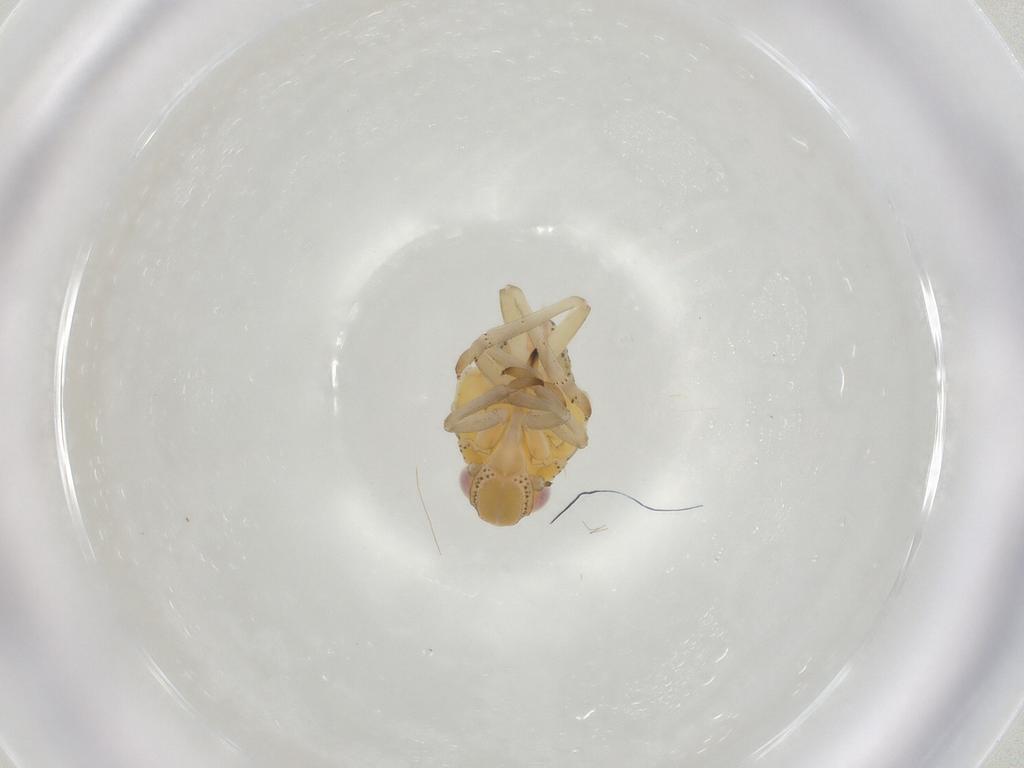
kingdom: Animalia
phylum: Arthropoda
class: Insecta
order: Hemiptera
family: Tropiduchidae
